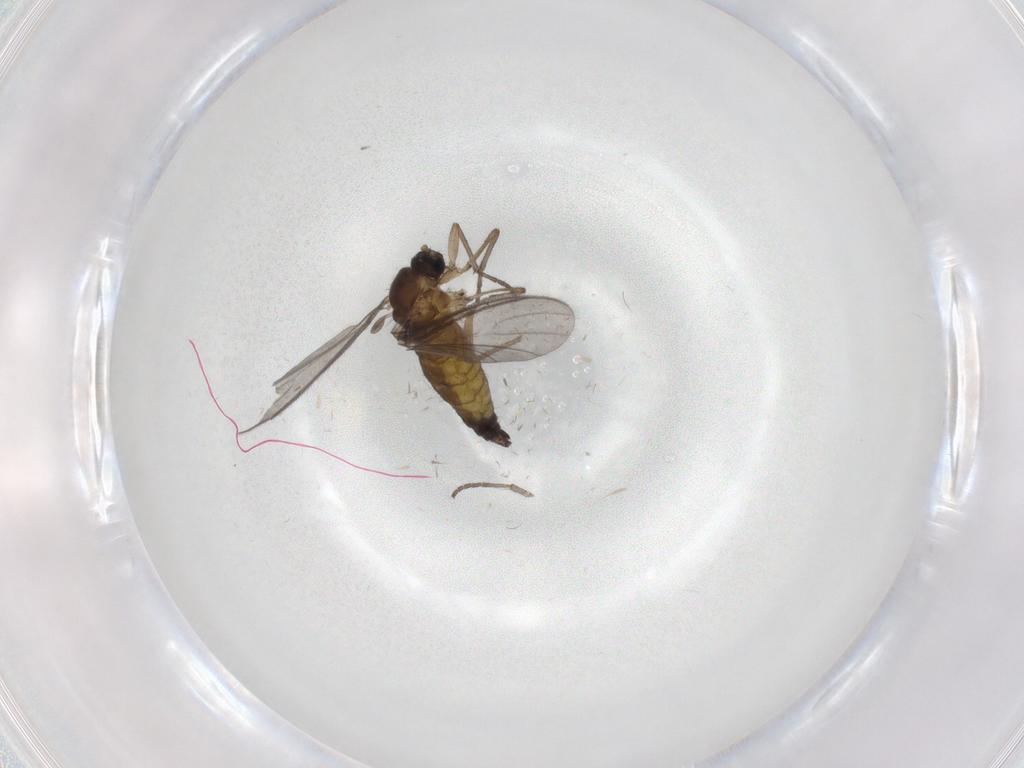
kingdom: Animalia
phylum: Arthropoda
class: Insecta
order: Diptera
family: Sciaridae
